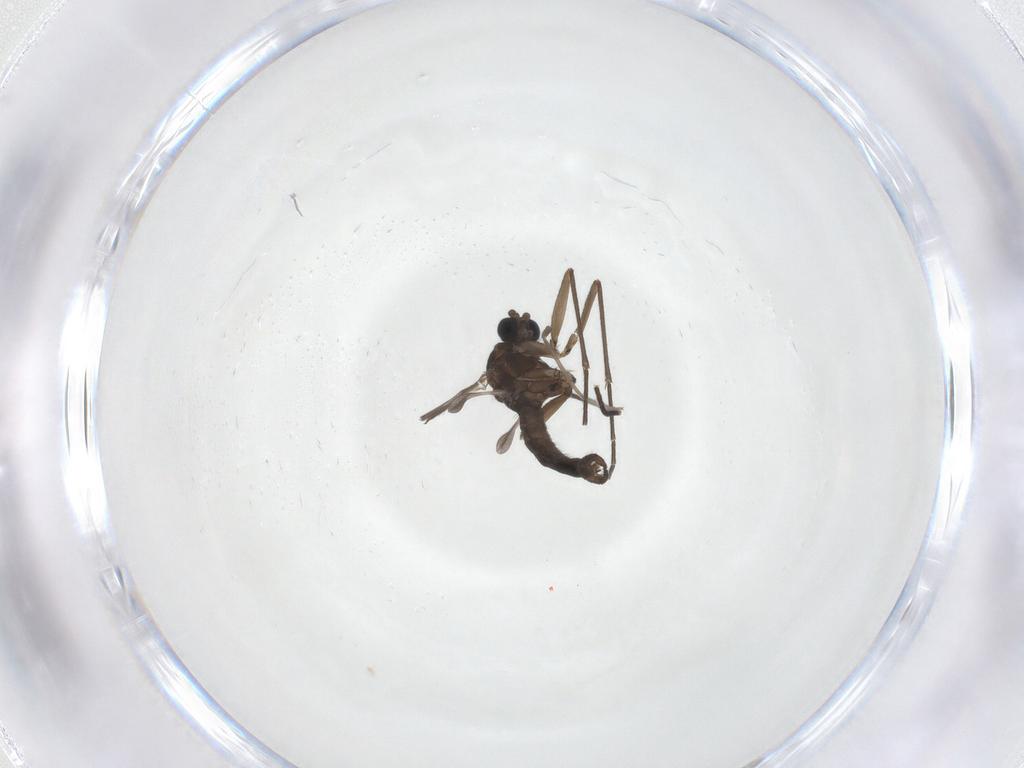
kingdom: Animalia
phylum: Arthropoda
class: Insecta
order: Diptera
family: Sciaridae
